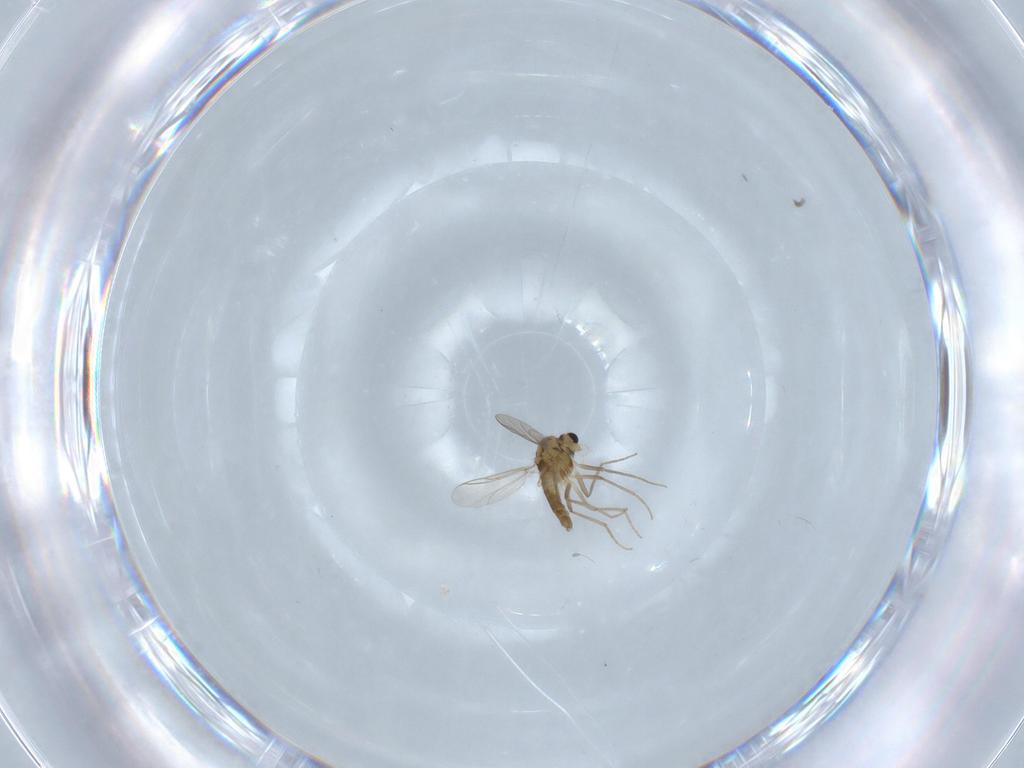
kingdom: Animalia
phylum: Arthropoda
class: Insecta
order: Diptera
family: Chironomidae
